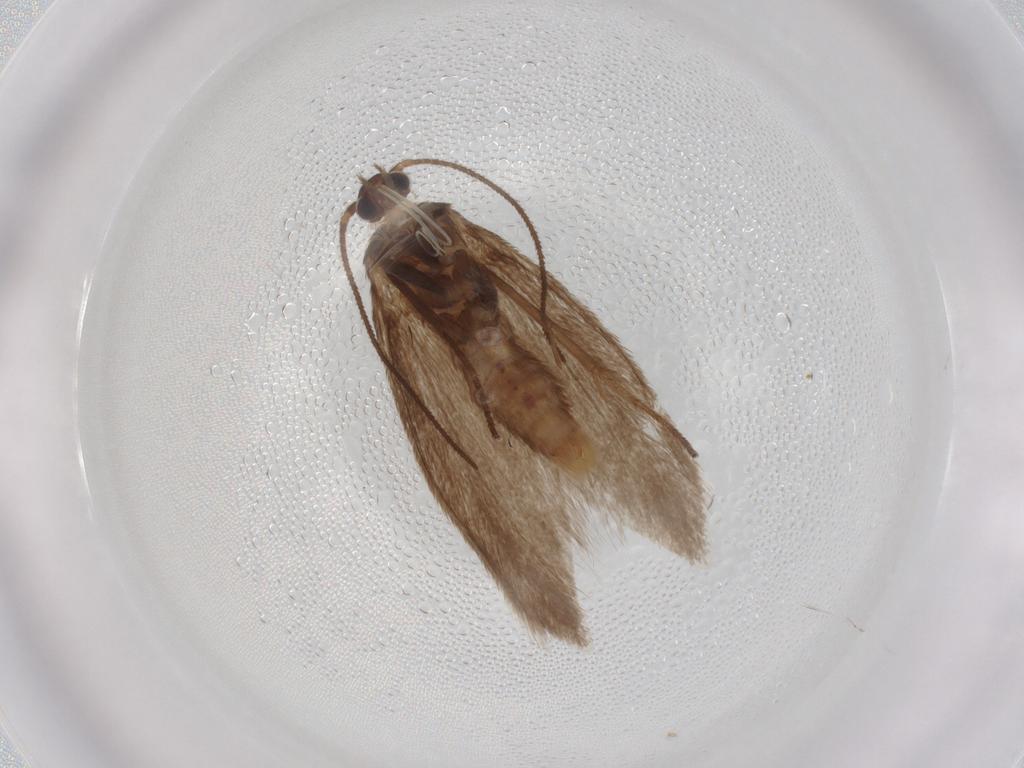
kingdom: Animalia
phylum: Arthropoda
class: Insecta
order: Lepidoptera
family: Limacodidae
